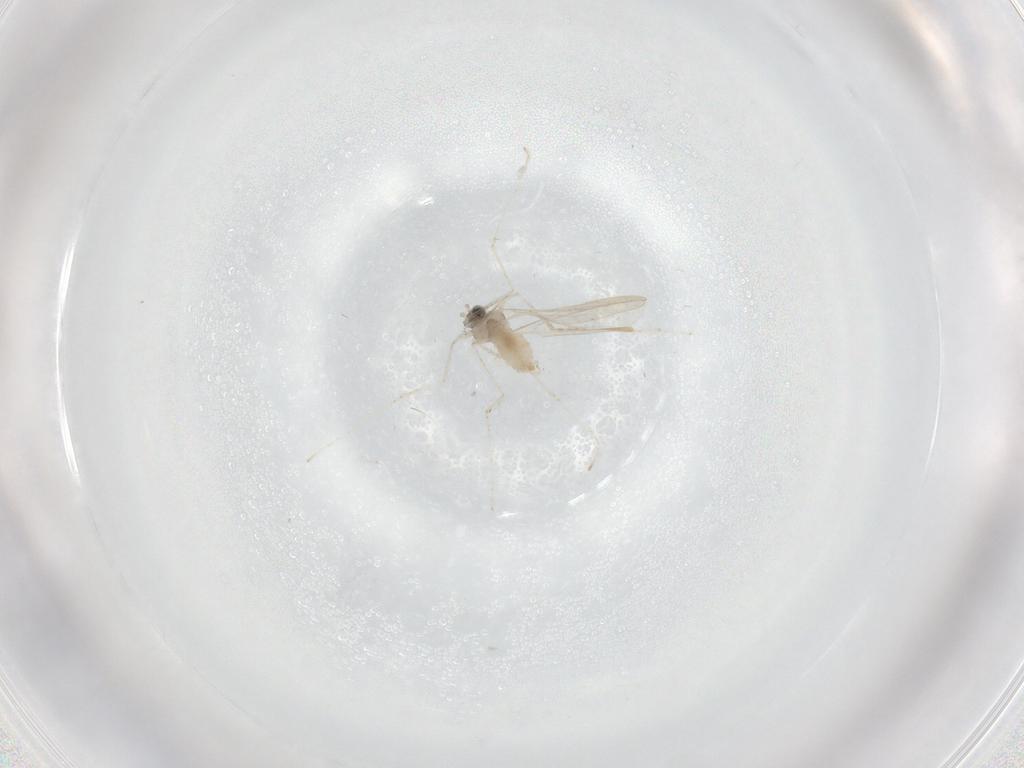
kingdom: Animalia
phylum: Arthropoda
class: Insecta
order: Diptera
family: Cecidomyiidae
